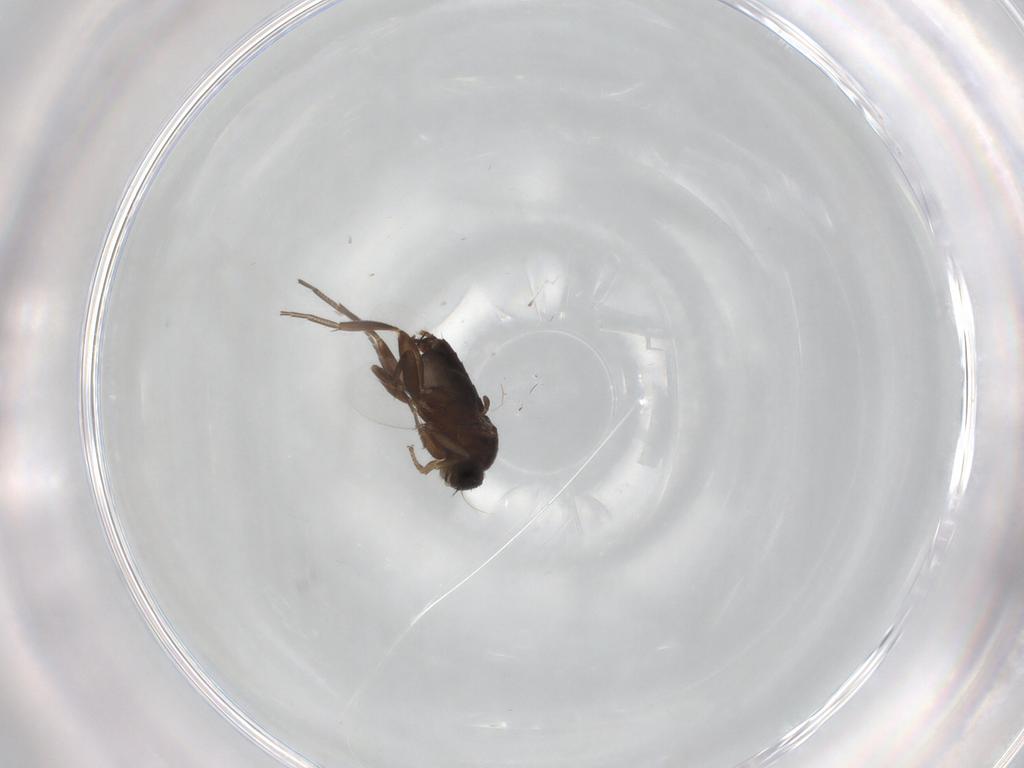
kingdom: Animalia
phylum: Arthropoda
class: Insecta
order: Diptera
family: Phoridae
